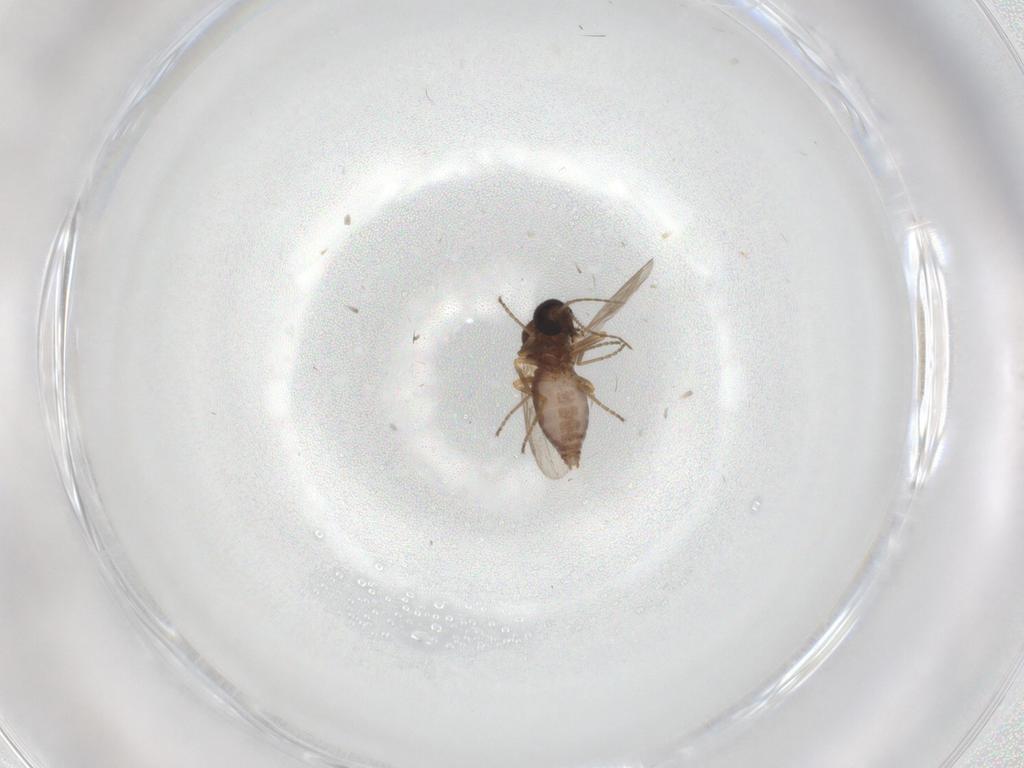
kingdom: Animalia
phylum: Arthropoda
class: Insecta
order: Diptera
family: Ceratopogonidae
